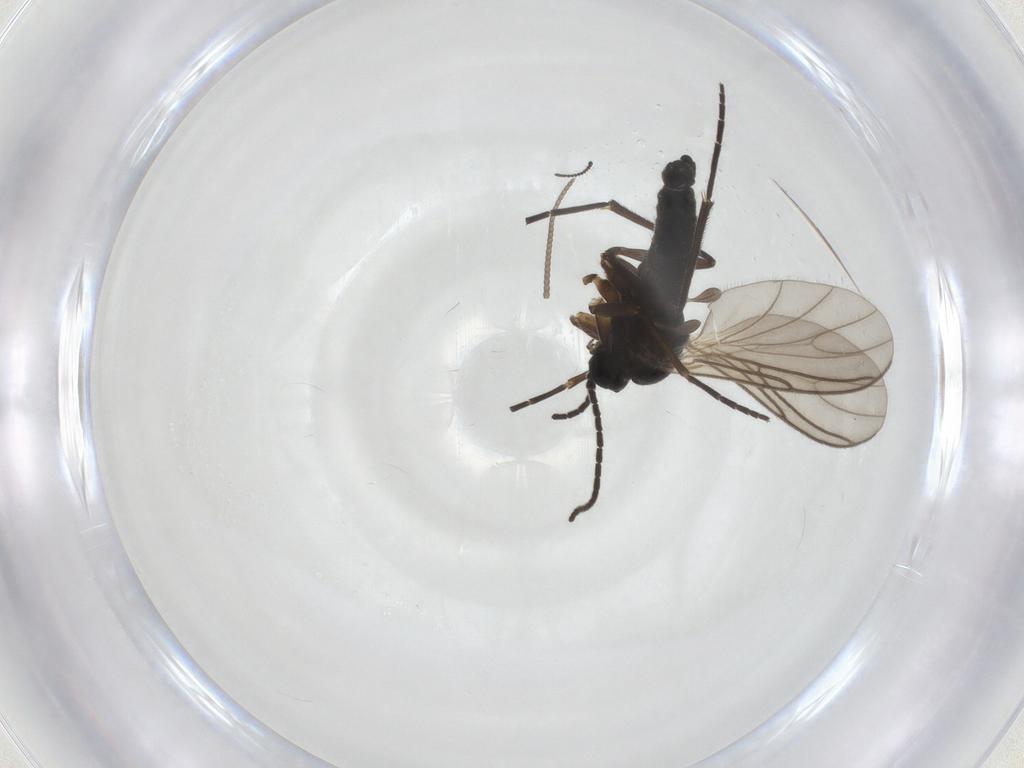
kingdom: Animalia
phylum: Arthropoda
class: Insecta
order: Diptera
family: Sciaridae
